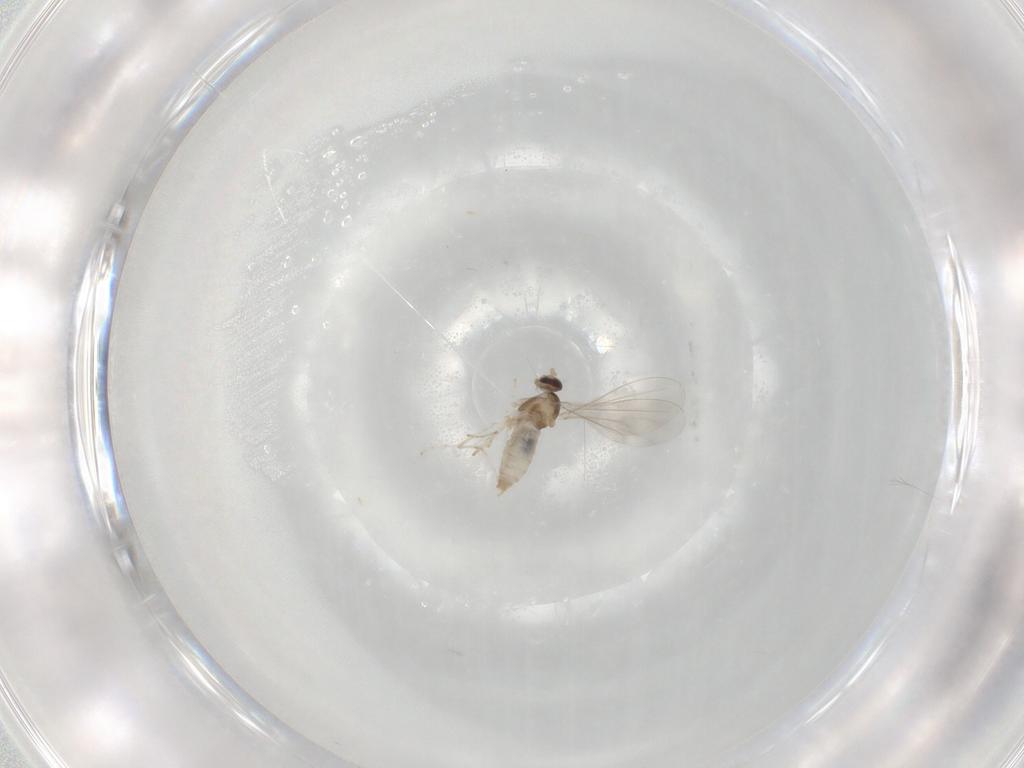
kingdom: Animalia
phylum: Arthropoda
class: Insecta
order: Diptera
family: Cecidomyiidae
